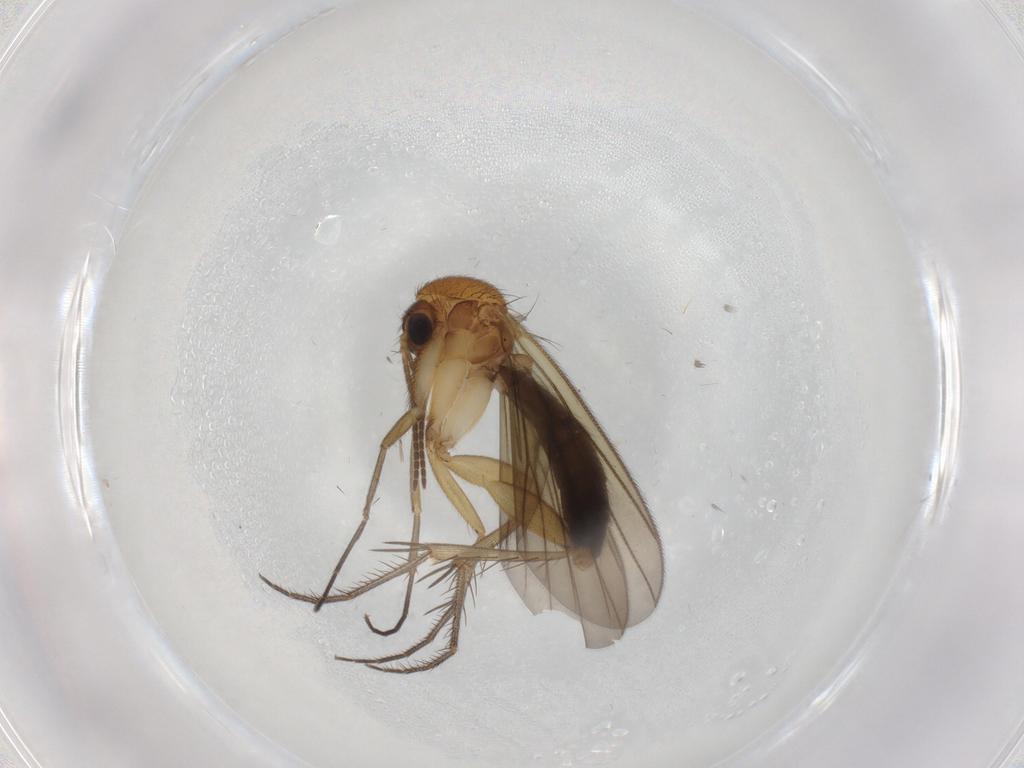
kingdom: Animalia
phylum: Arthropoda
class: Insecta
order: Diptera
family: Mycetophilidae
